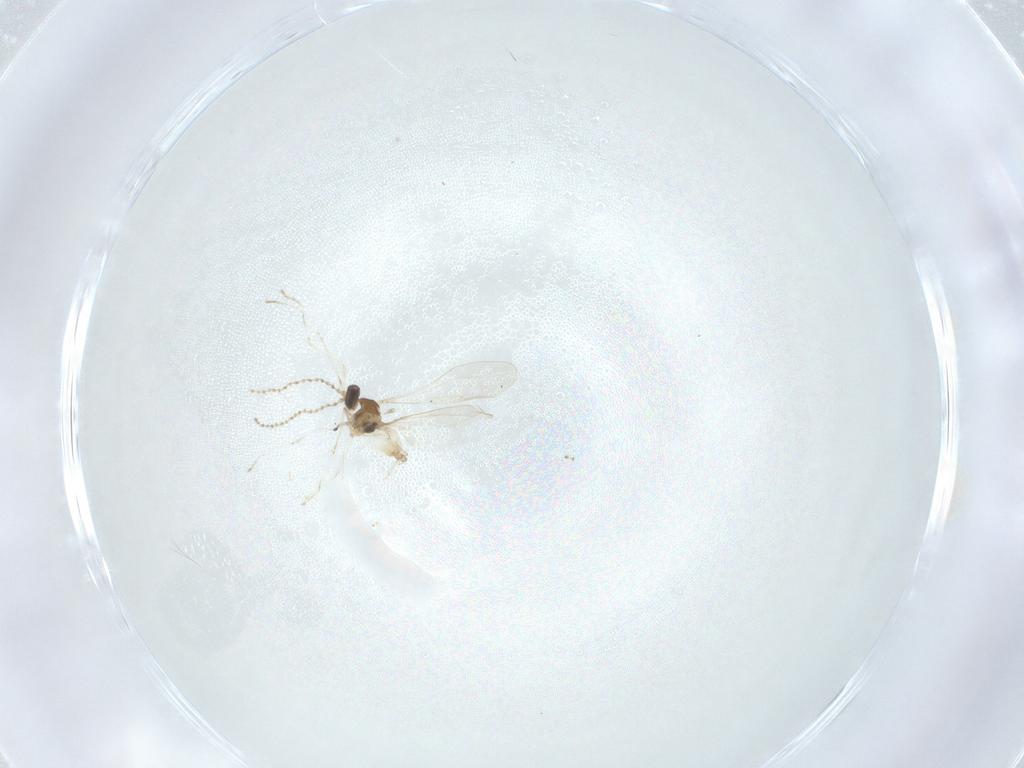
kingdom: Animalia
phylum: Arthropoda
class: Insecta
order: Diptera
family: Cecidomyiidae
